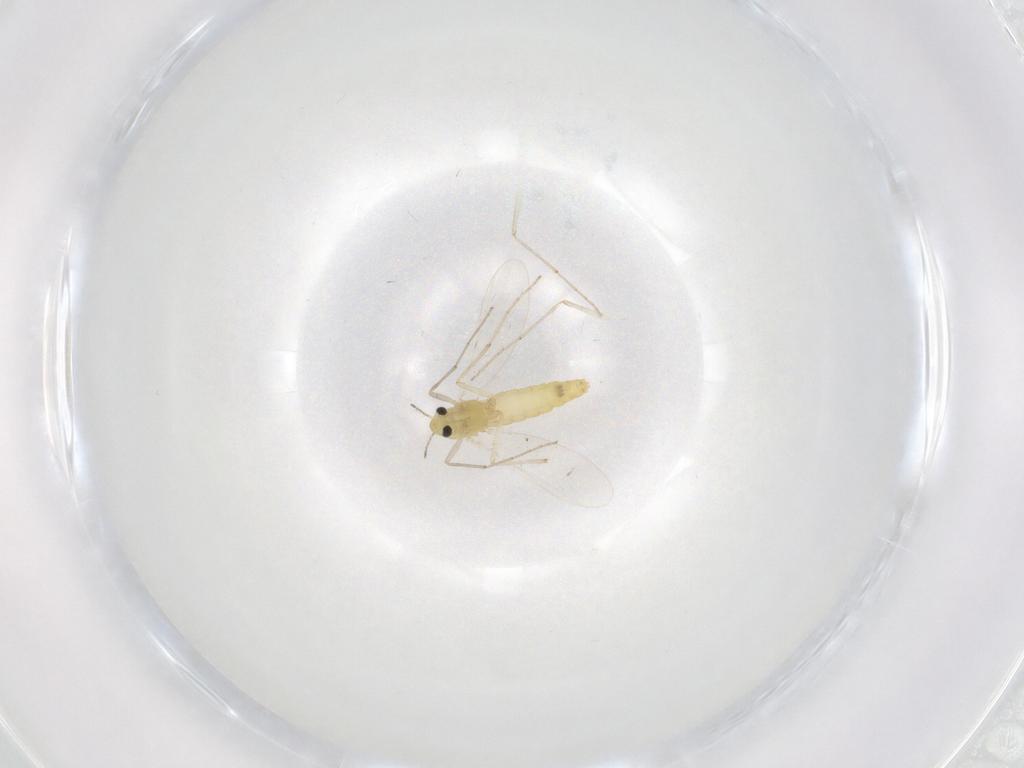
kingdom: Animalia
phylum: Arthropoda
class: Insecta
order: Diptera
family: Chironomidae
